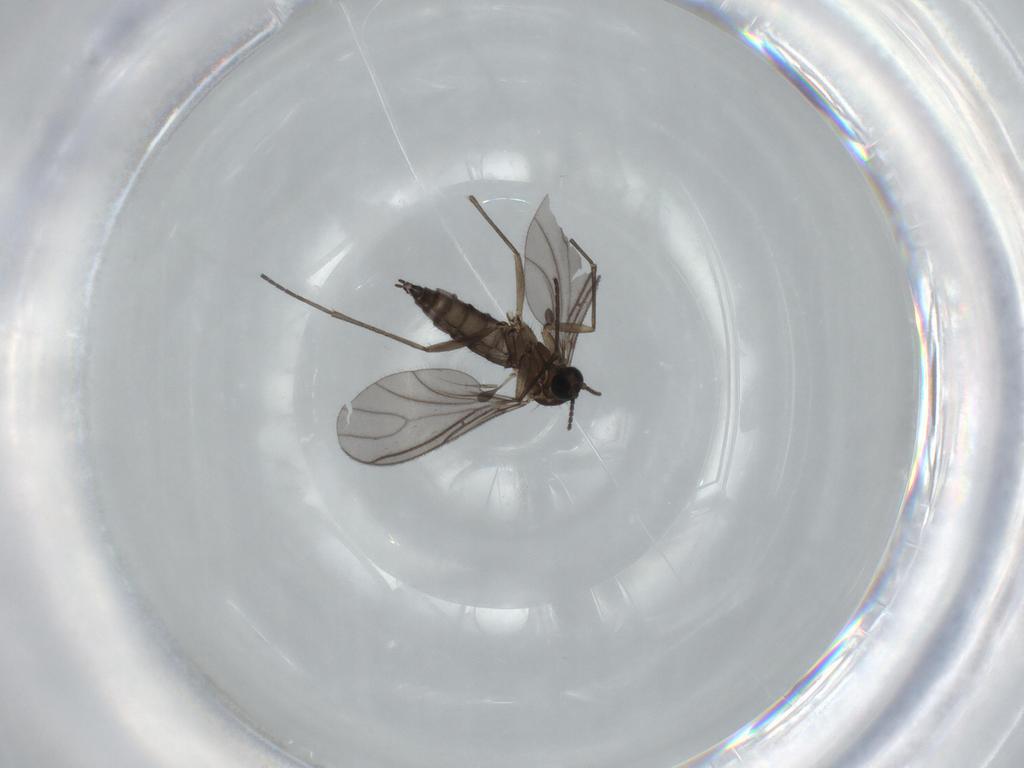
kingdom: Animalia
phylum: Arthropoda
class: Insecta
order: Diptera
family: Sciaridae
